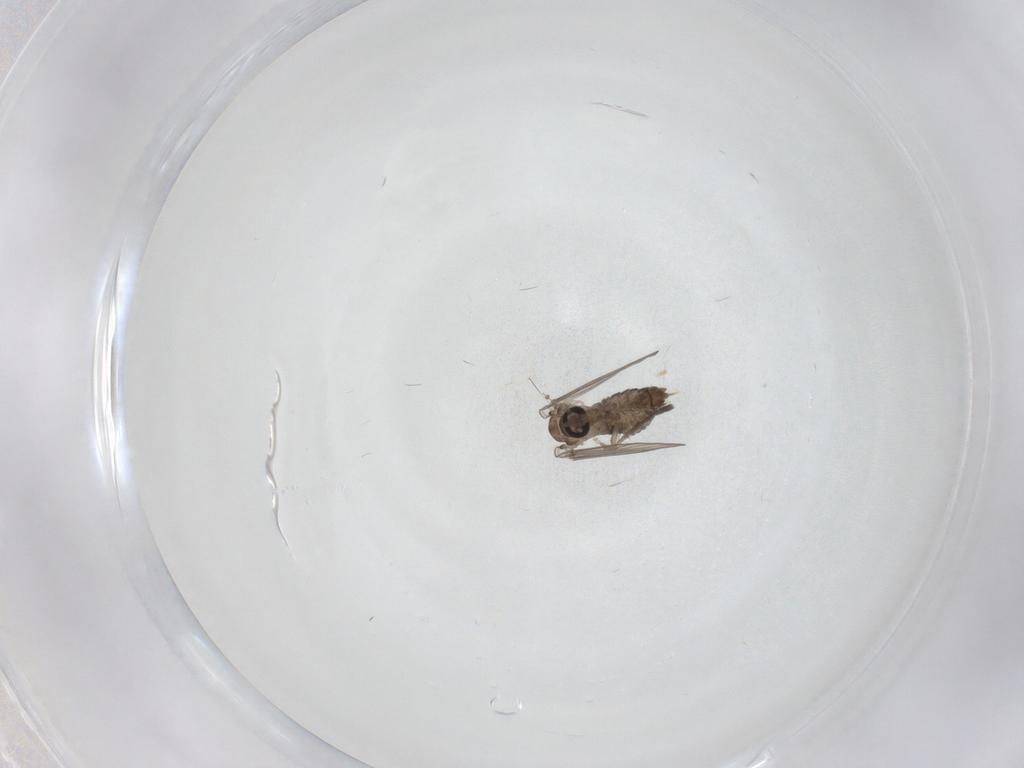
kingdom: Animalia
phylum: Arthropoda
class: Insecta
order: Diptera
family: Psychodidae
